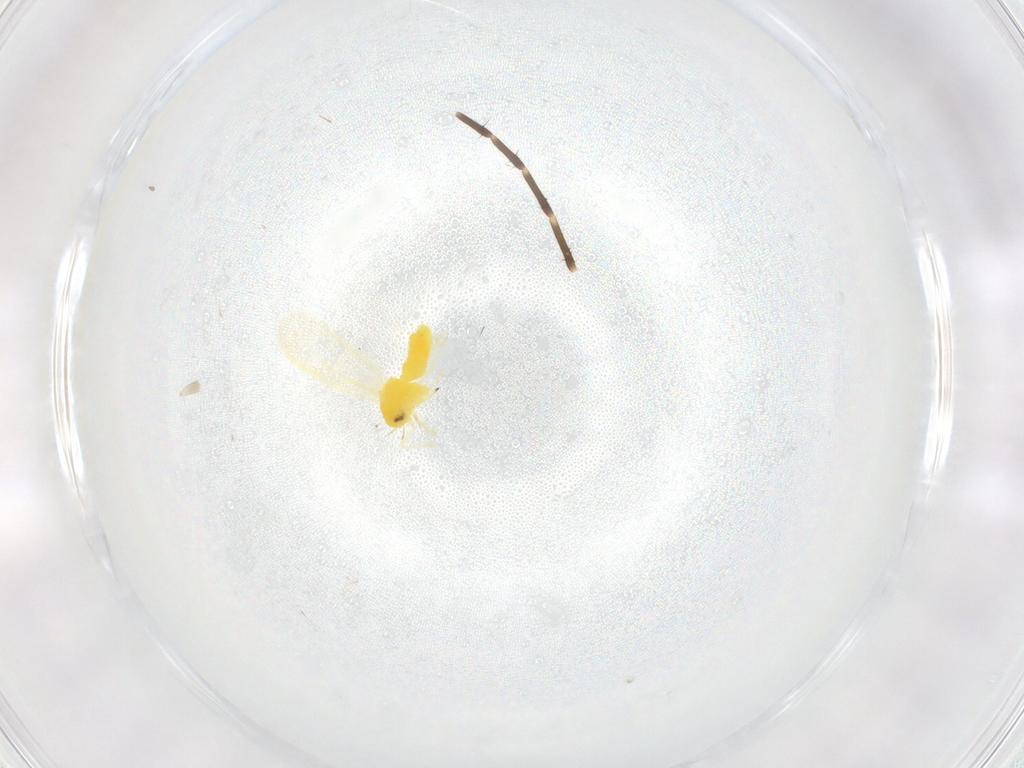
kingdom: Animalia
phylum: Arthropoda
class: Insecta
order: Hemiptera
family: Aleyrodidae
